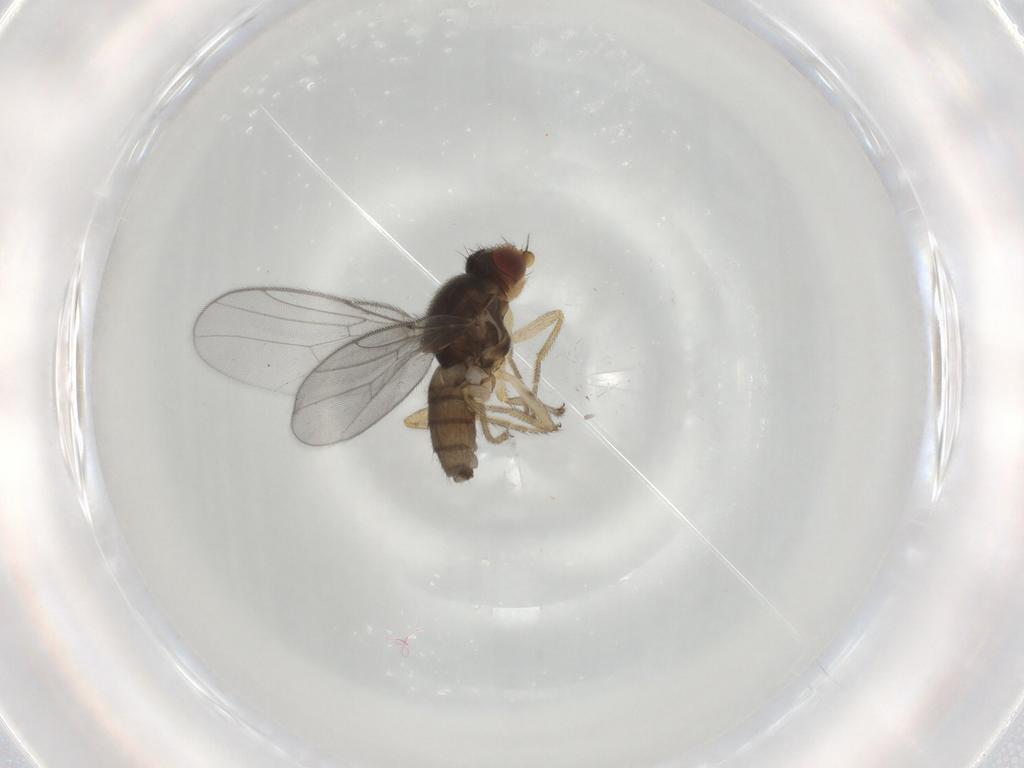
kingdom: Animalia
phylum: Arthropoda
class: Insecta
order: Diptera
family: Chloropidae
